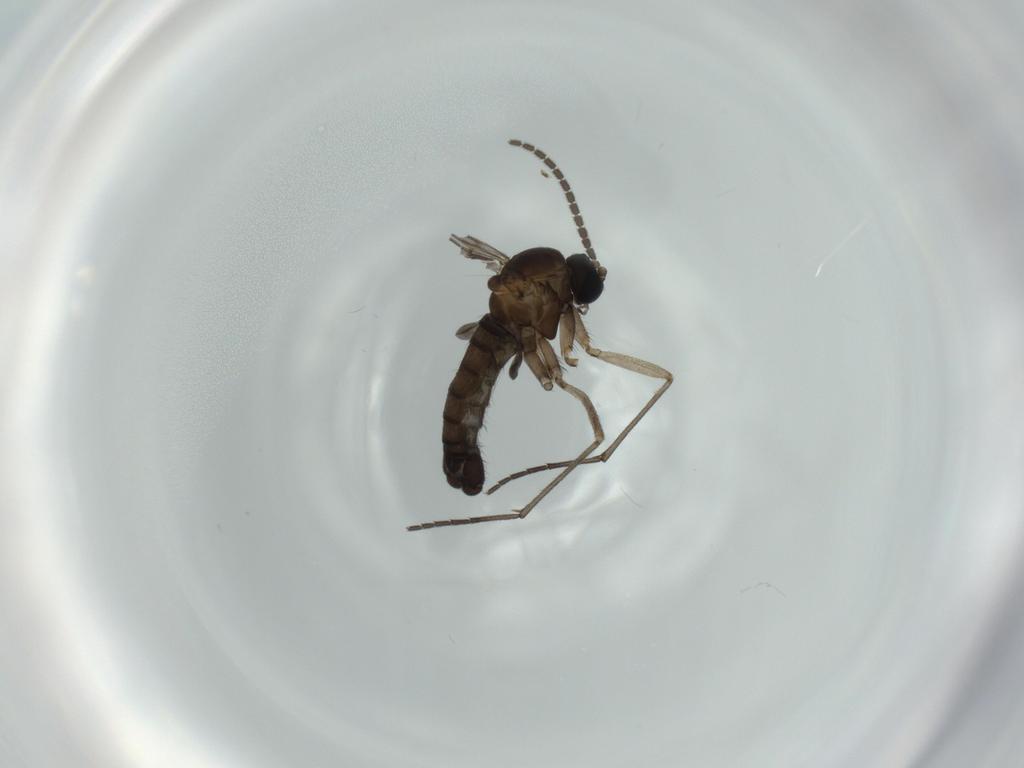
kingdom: Animalia
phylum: Arthropoda
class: Insecta
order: Diptera
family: Sciaridae
